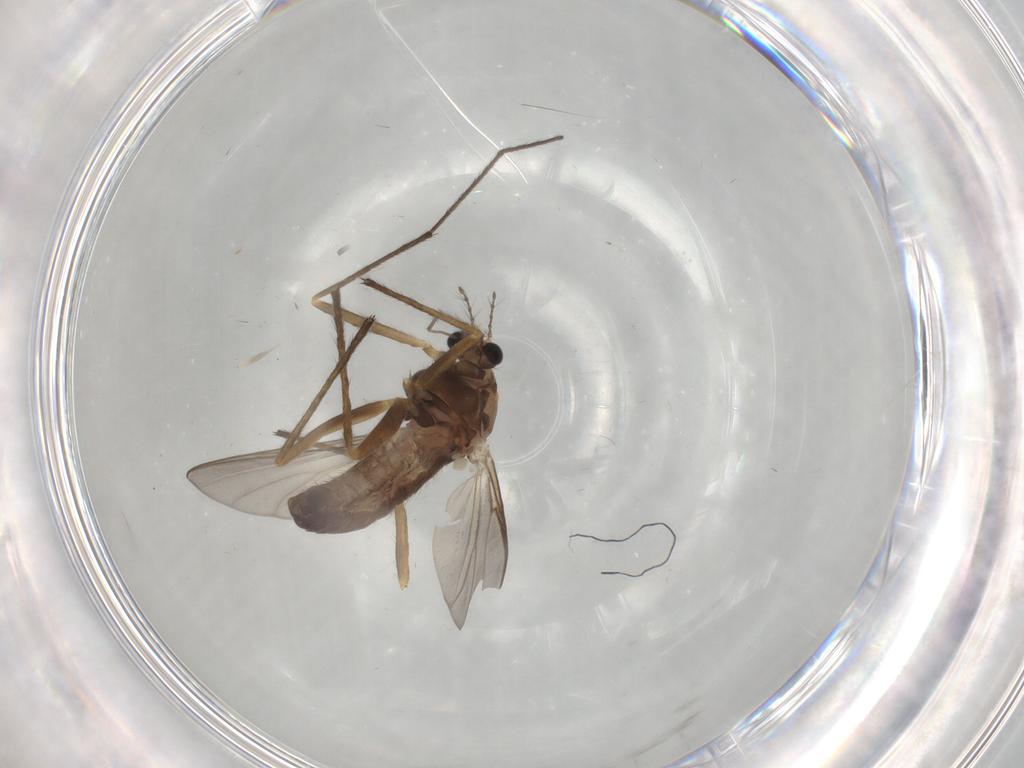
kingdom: Animalia
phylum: Arthropoda
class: Insecta
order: Diptera
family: Chironomidae
